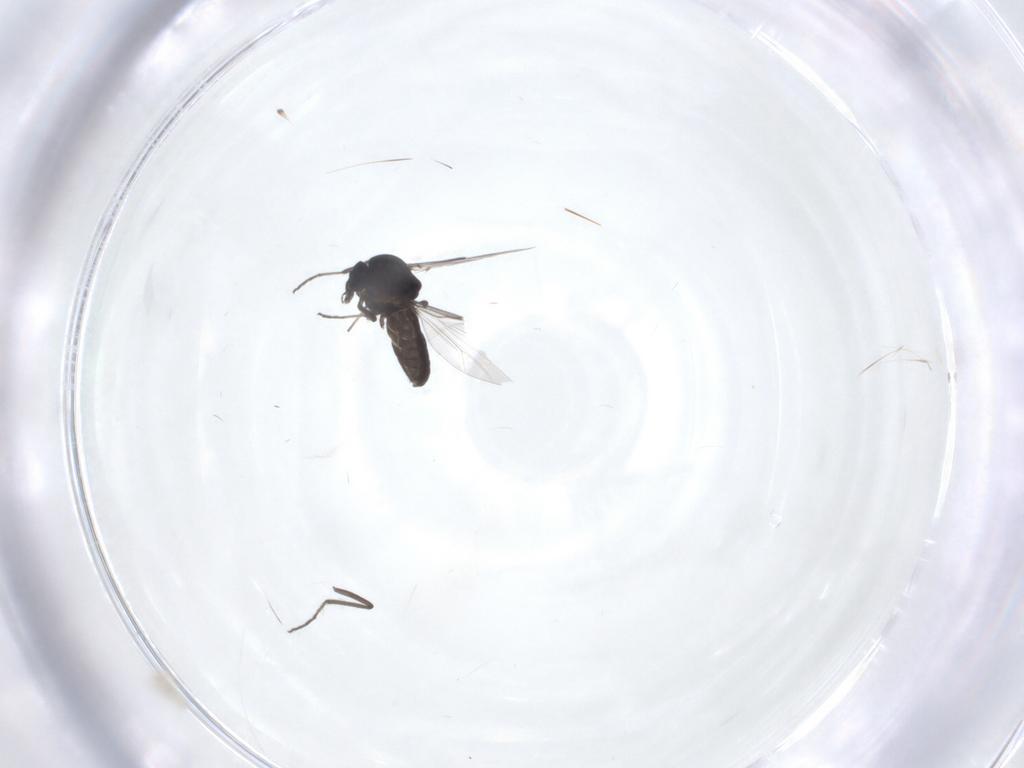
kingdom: Animalia
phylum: Arthropoda
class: Insecta
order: Diptera
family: Ceratopogonidae
